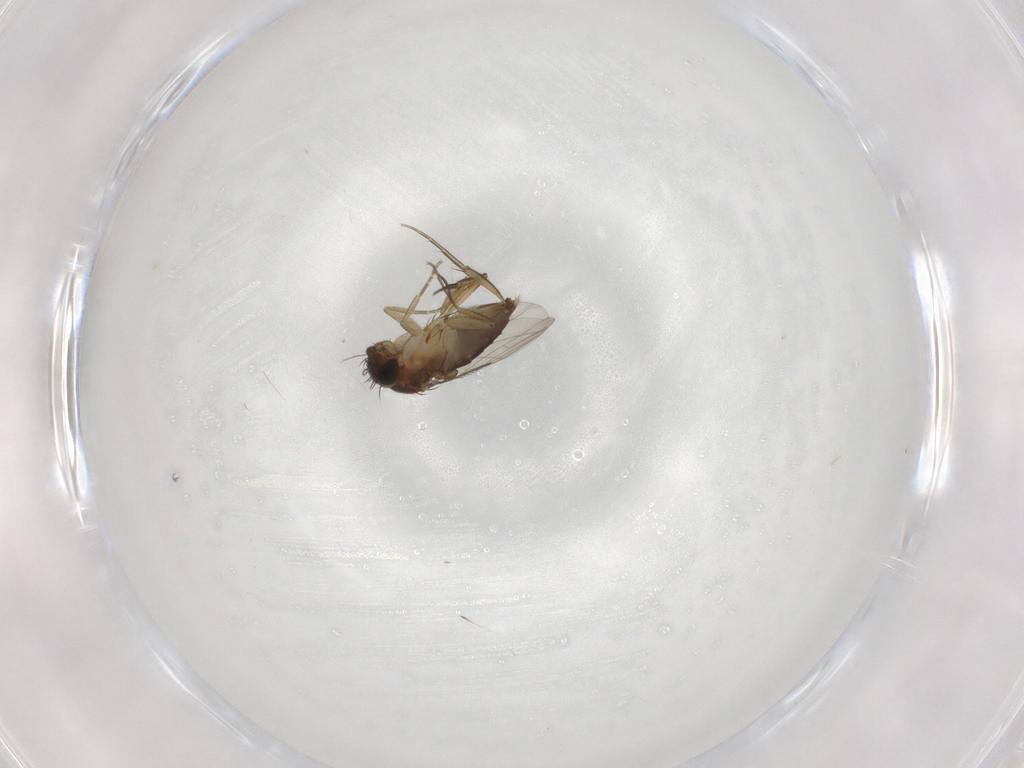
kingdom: Animalia
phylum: Arthropoda
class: Insecta
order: Diptera
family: Phoridae
